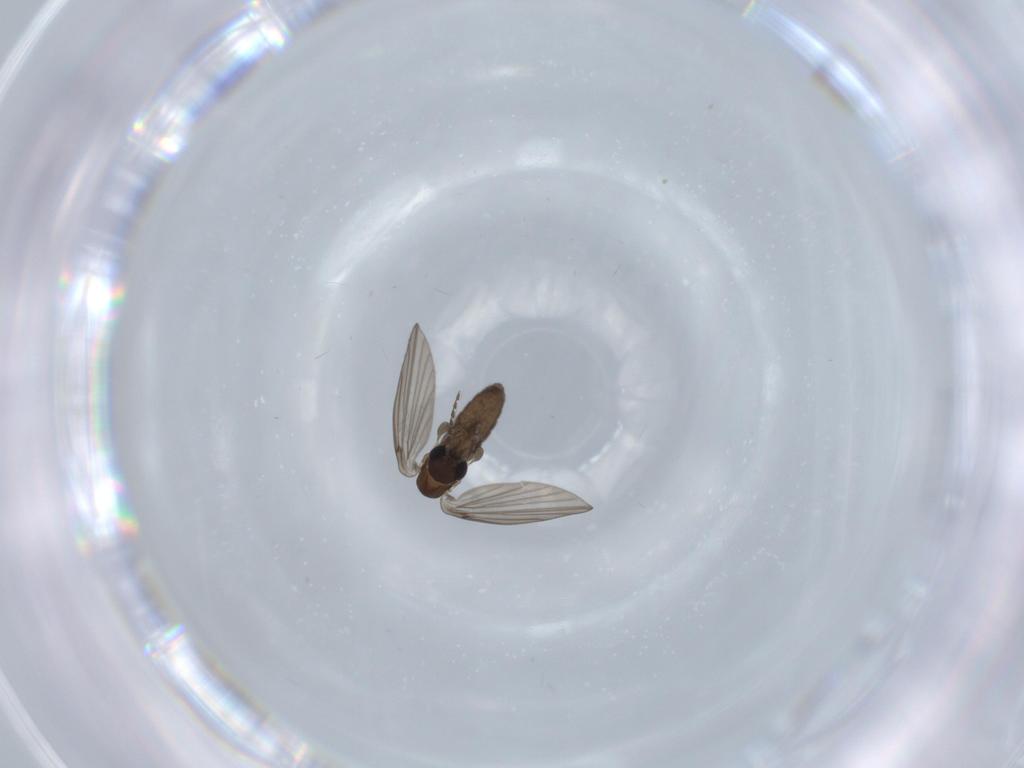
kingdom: Animalia
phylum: Arthropoda
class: Insecta
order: Diptera
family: Psychodidae
